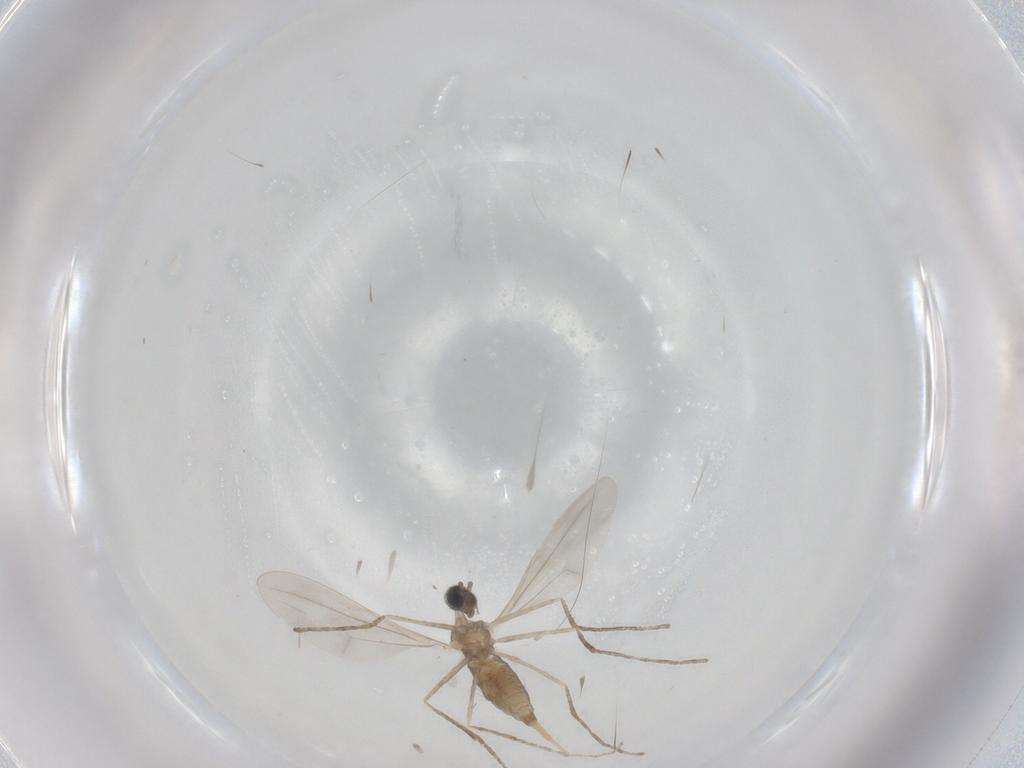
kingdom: Animalia
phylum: Arthropoda
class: Insecta
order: Diptera
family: Cecidomyiidae
